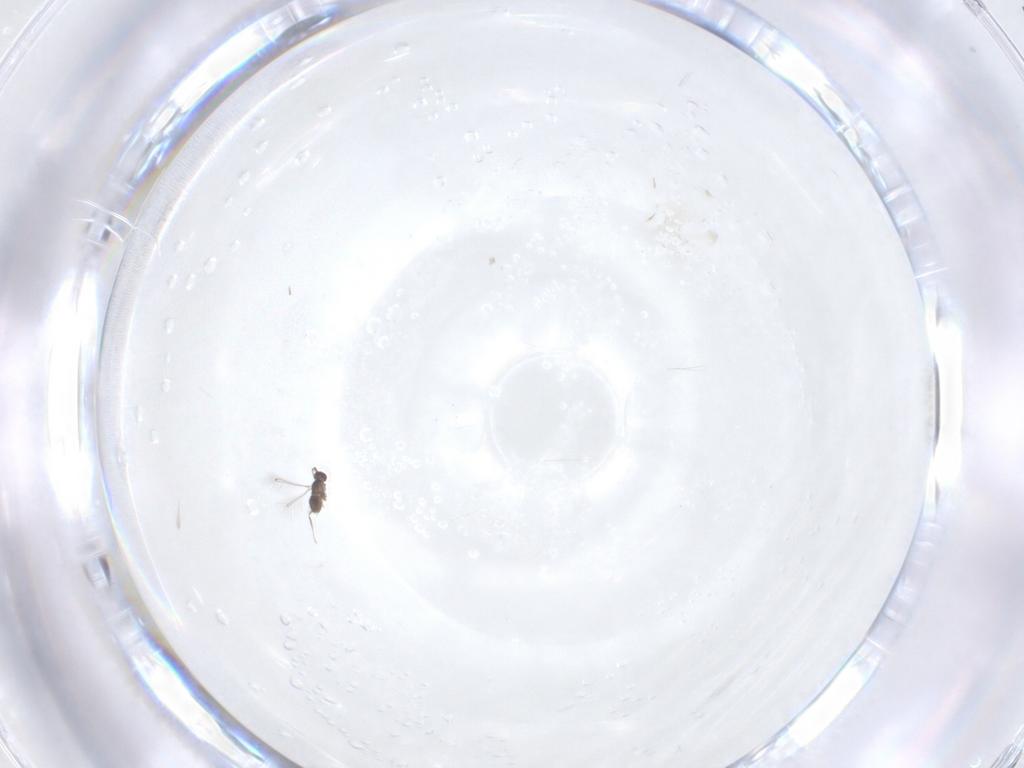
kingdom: Animalia
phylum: Arthropoda
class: Insecta
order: Hymenoptera
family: Mymaridae
